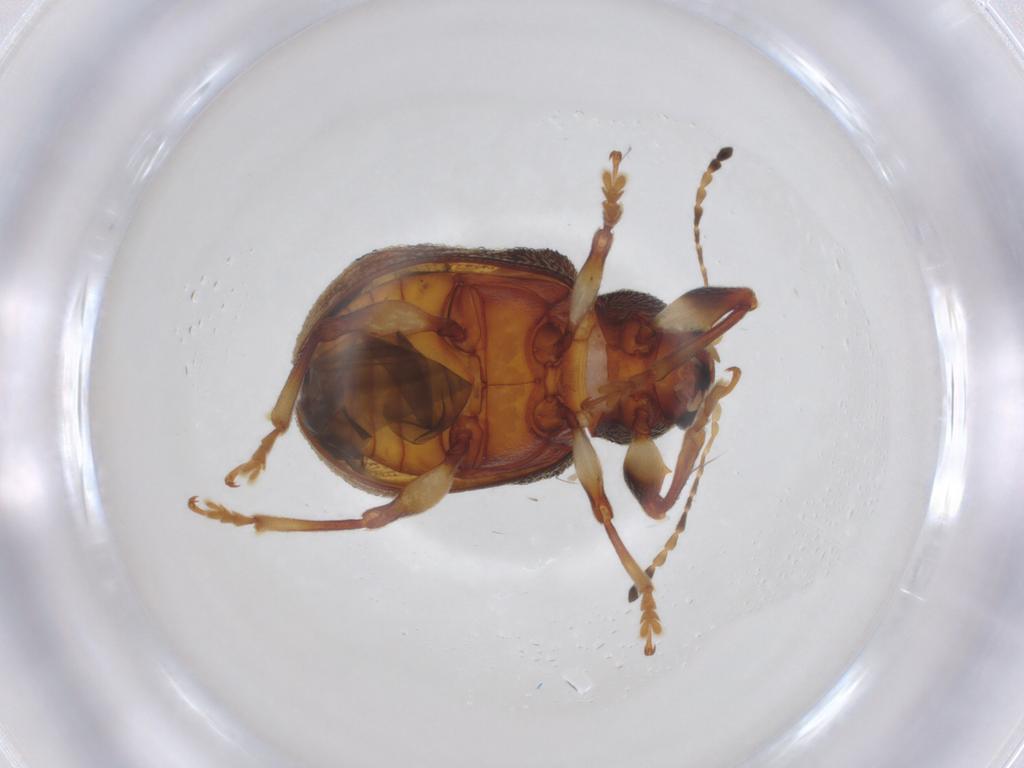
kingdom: Animalia
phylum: Arthropoda
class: Insecta
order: Coleoptera
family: Chrysomelidae
